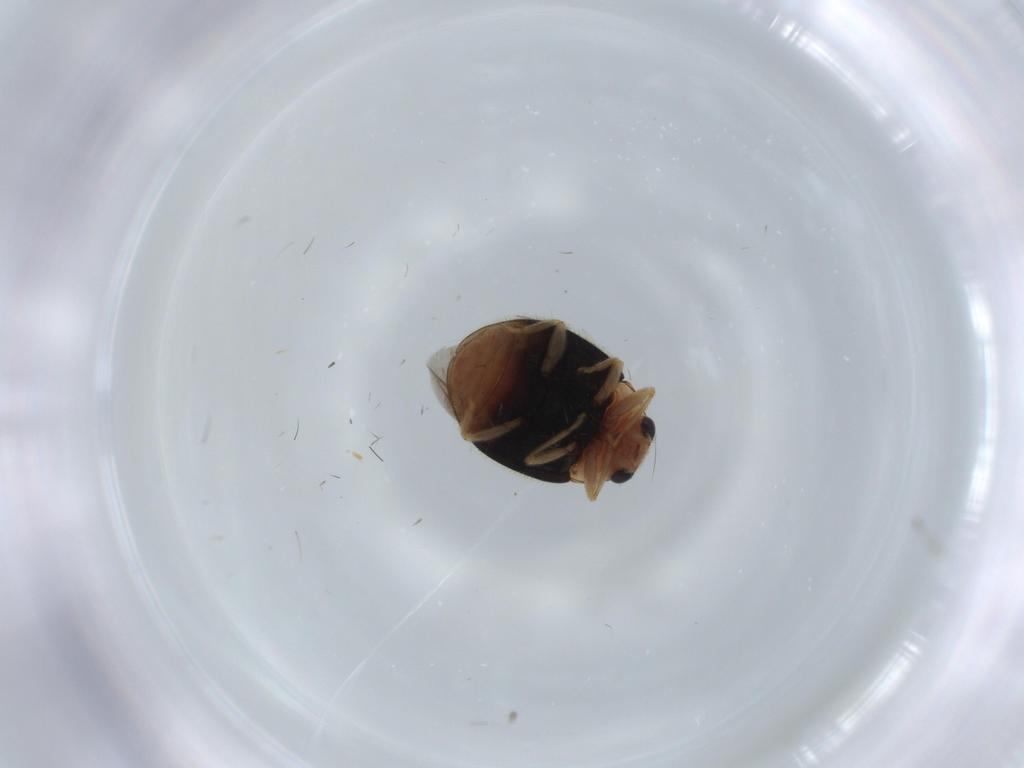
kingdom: Animalia
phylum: Arthropoda
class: Insecta
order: Coleoptera
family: Coccinellidae
